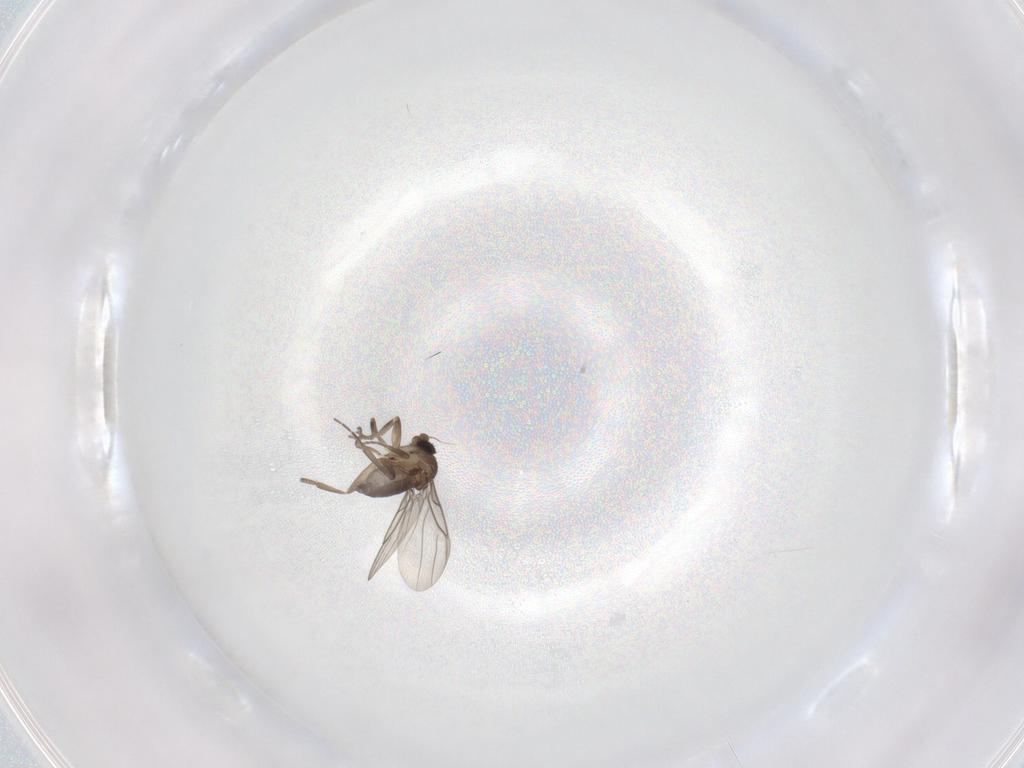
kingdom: Animalia
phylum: Arthropoda
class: Insecta
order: Diptera
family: Phoridae
